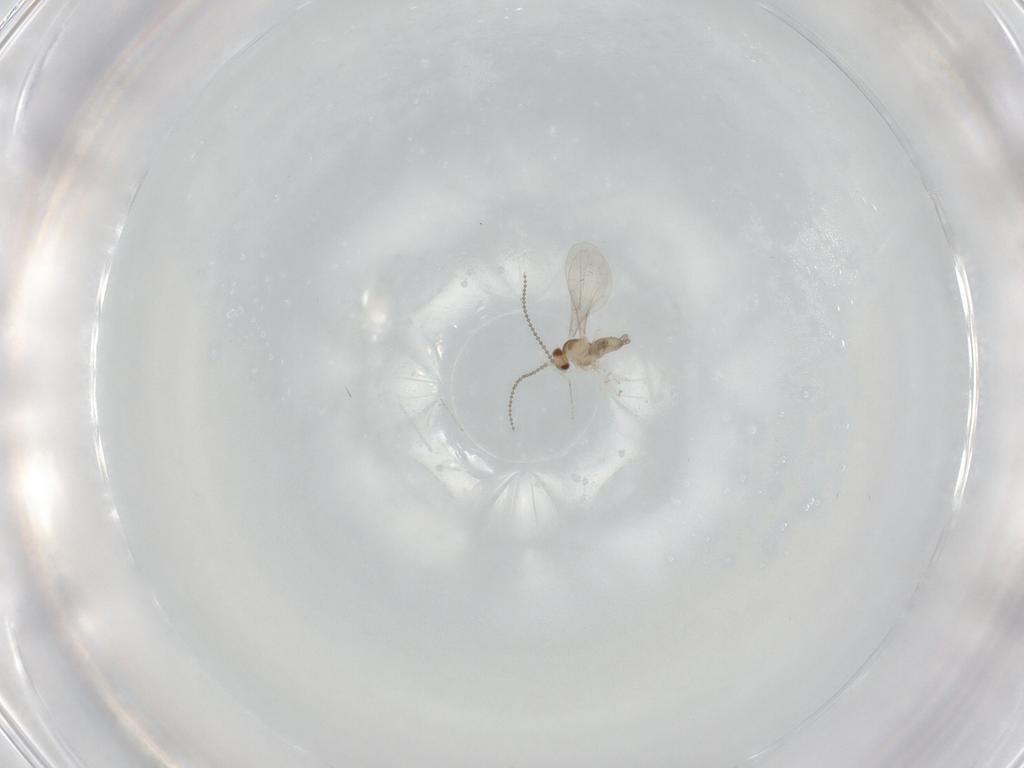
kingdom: Animalia
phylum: Arthropoda
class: Insecta
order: Diptera
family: Cecidomyiidae
